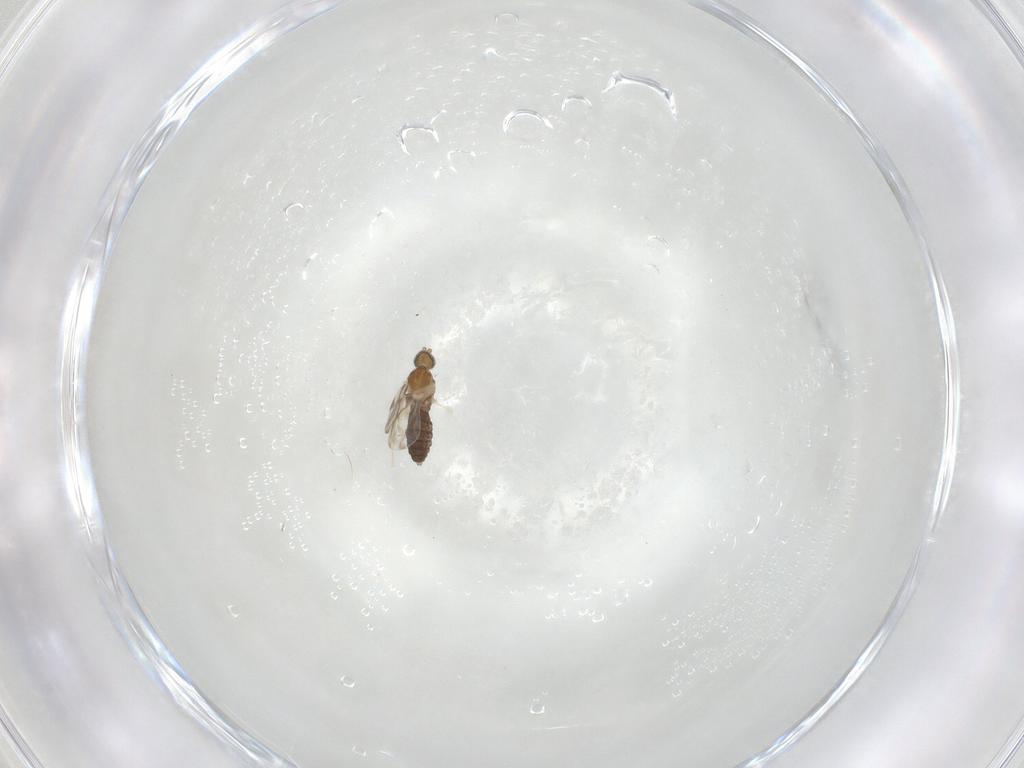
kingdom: Animalia
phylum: Arthropoda
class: Insecta
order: Diptera
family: Cecidomyiidae
